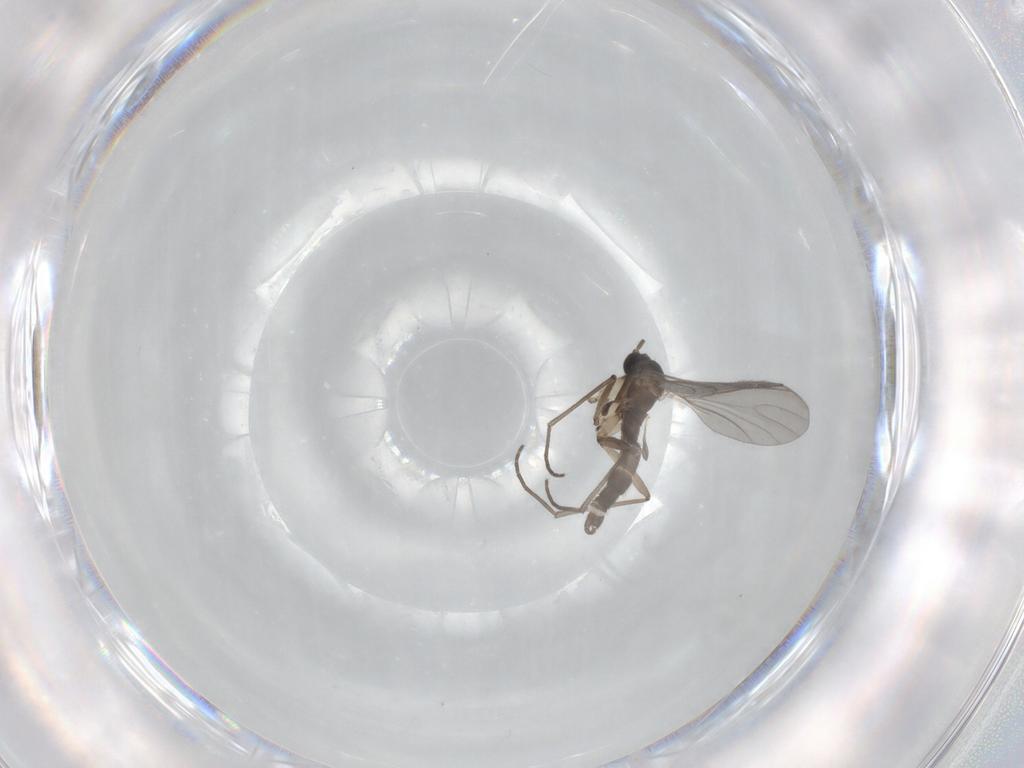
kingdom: Animalia
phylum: Arthropoda
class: Insecta
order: Diptera
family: Sciaridae
